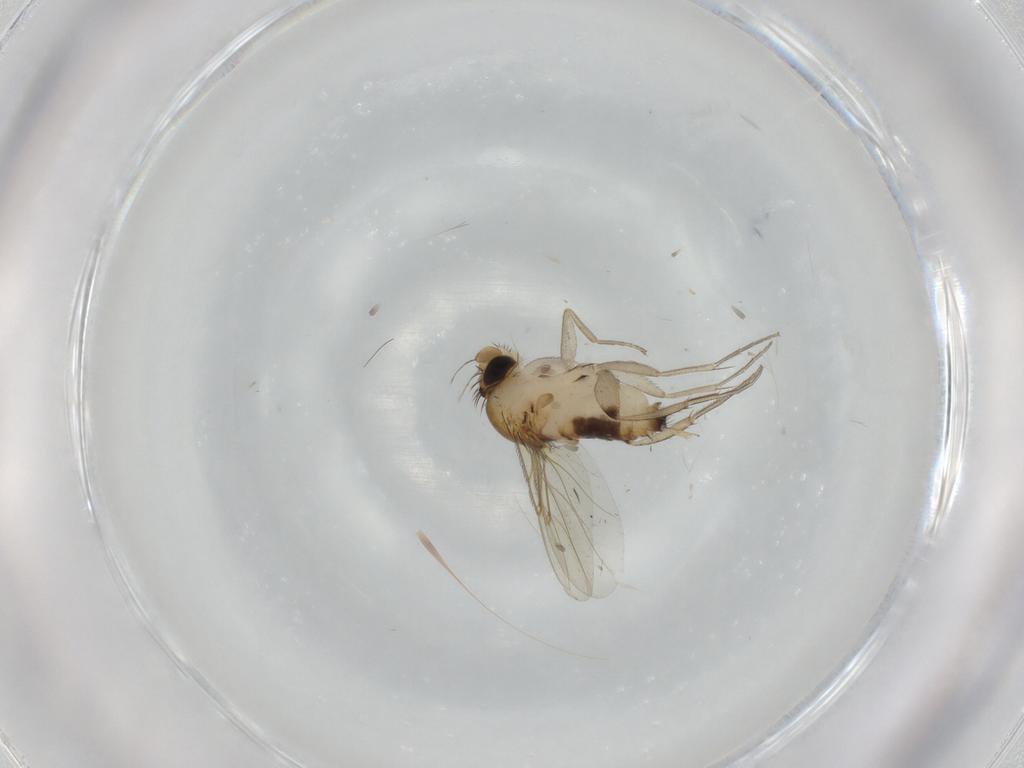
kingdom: Animalia
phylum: Arthropoda
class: Insecta
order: Diptera
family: Phoridae
